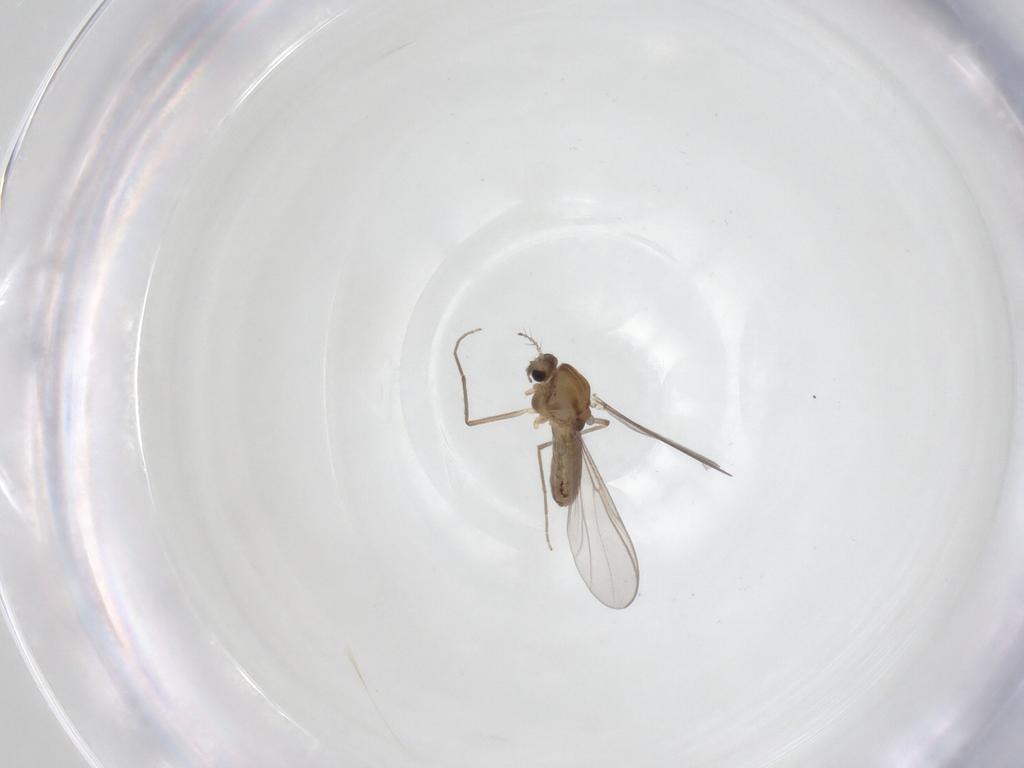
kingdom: Animalia
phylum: Arthropoda
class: Insecta
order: Diptera
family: Chironomidae
